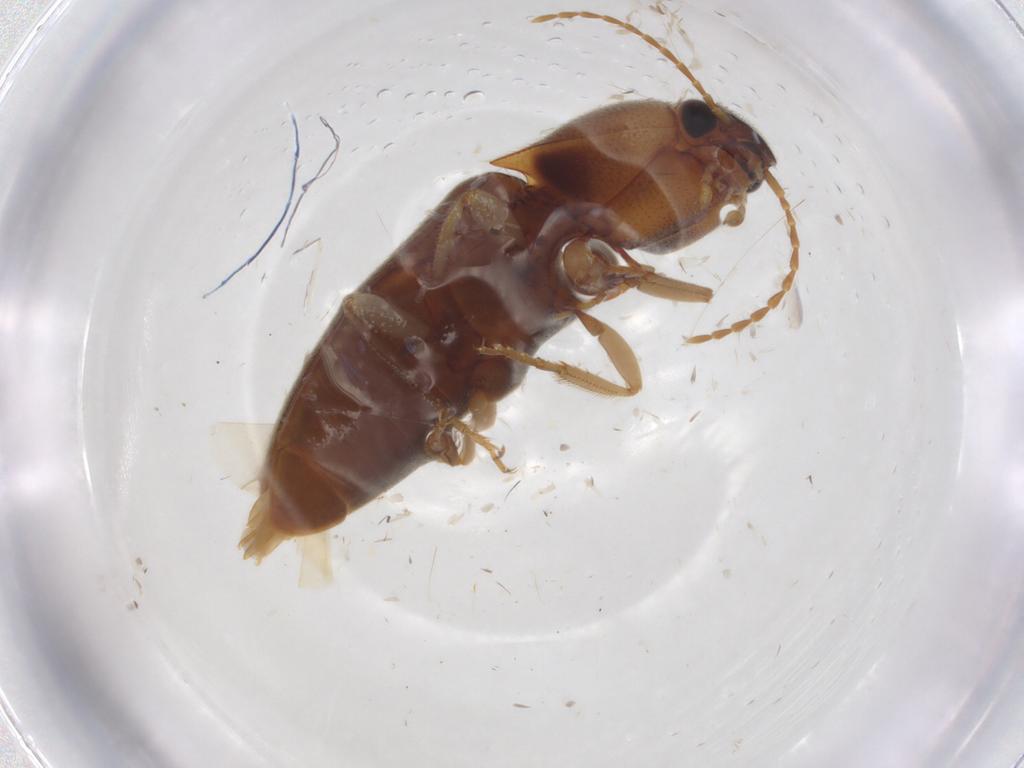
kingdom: Animalia
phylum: Arthropoda
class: Insecta
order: Coleoptera
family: Elateridae
